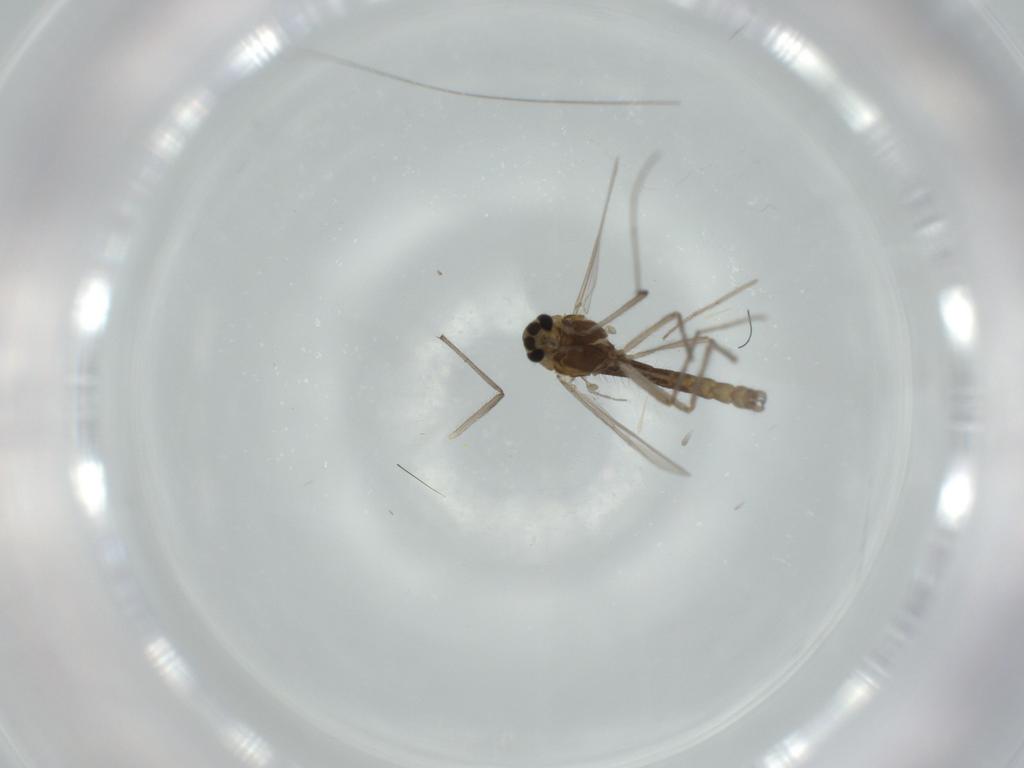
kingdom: Animalia
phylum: Arthropoda
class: Insecta
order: Diptera
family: Chironomidae
